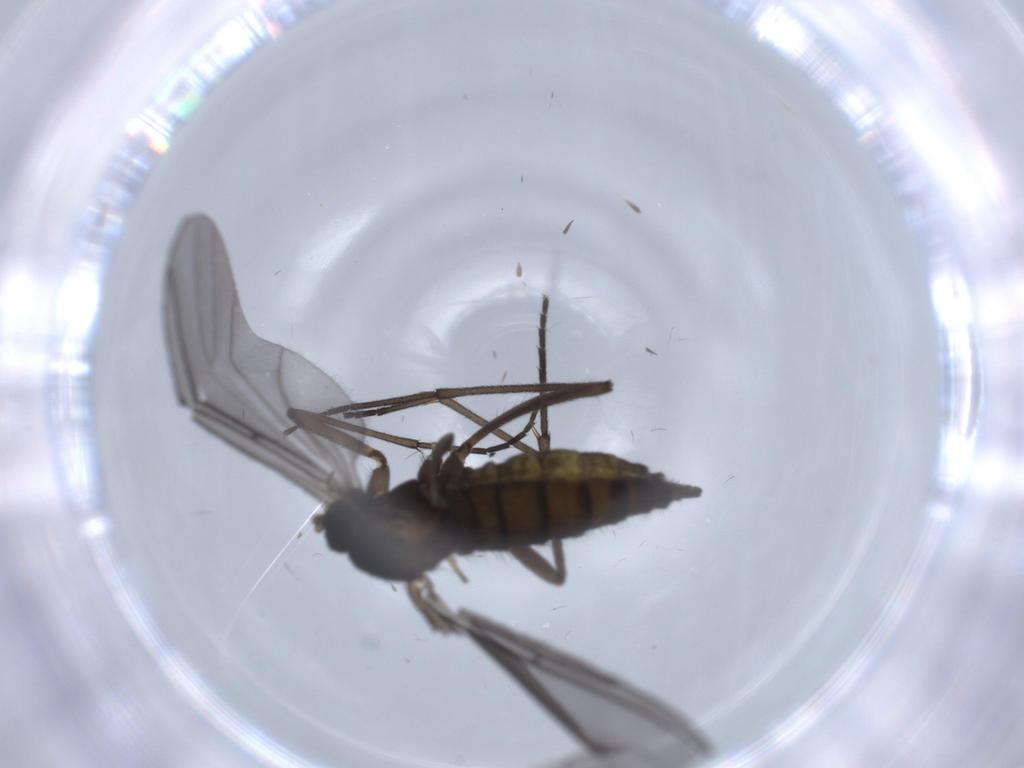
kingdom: Animalia
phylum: Arthropoda
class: Insecta
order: Diptera
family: Sciaridae
